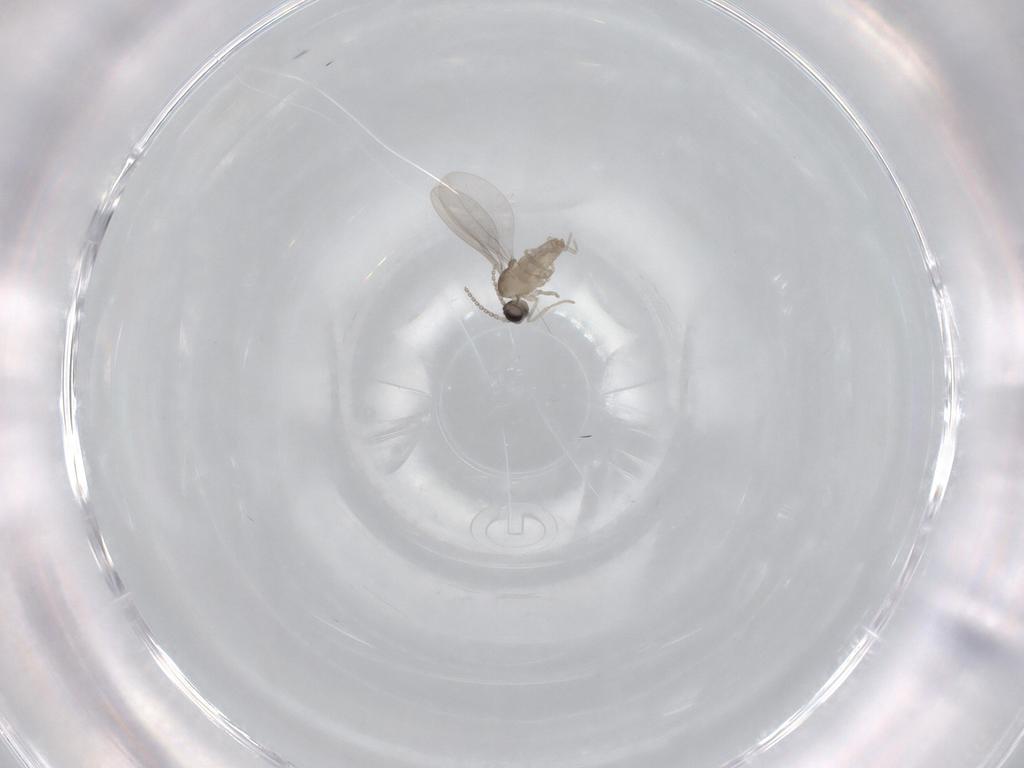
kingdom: Animalia
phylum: Arthropoda
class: Insecta
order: Diptera
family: Cecidomyiidae
